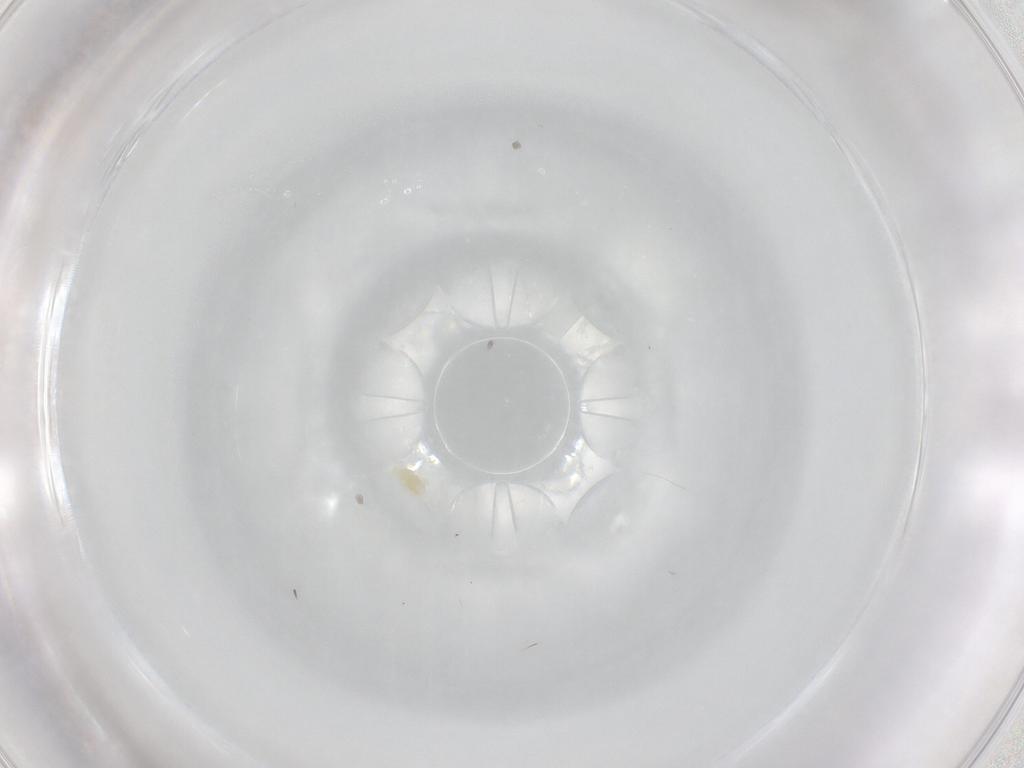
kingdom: Animalia
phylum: Arthropoda
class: Arachnida
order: Trombidiformes
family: Eupodidae
